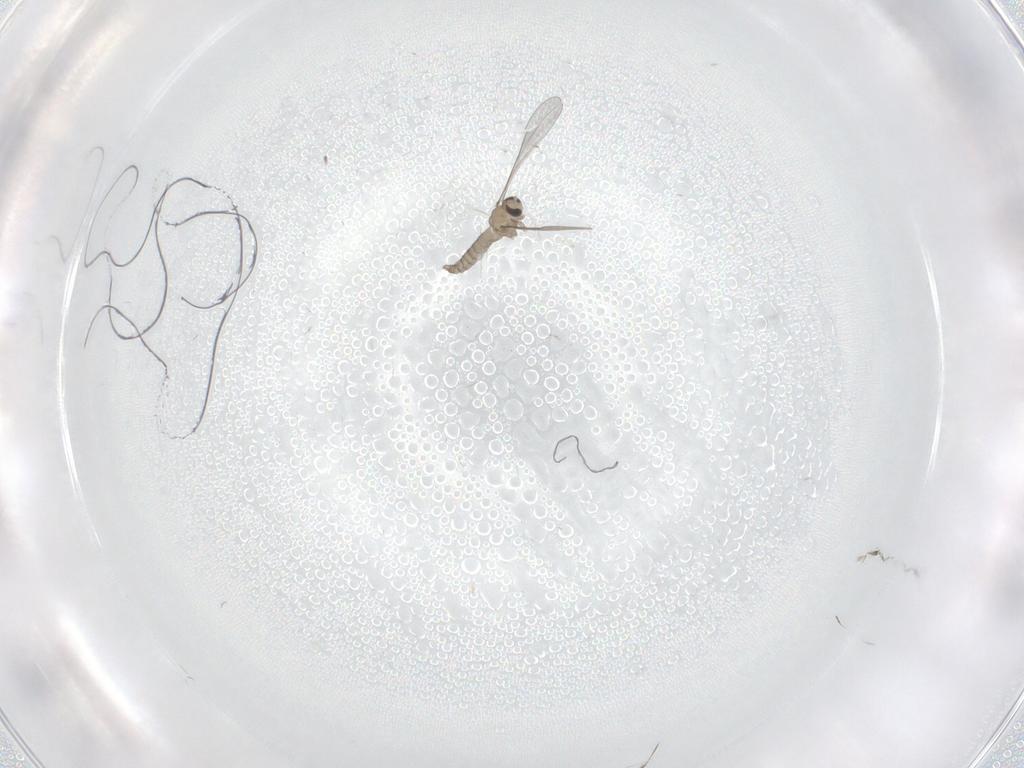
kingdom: Animalia
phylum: Arthropoda
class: Insecta
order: Diptera
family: Cecidomyiidae
